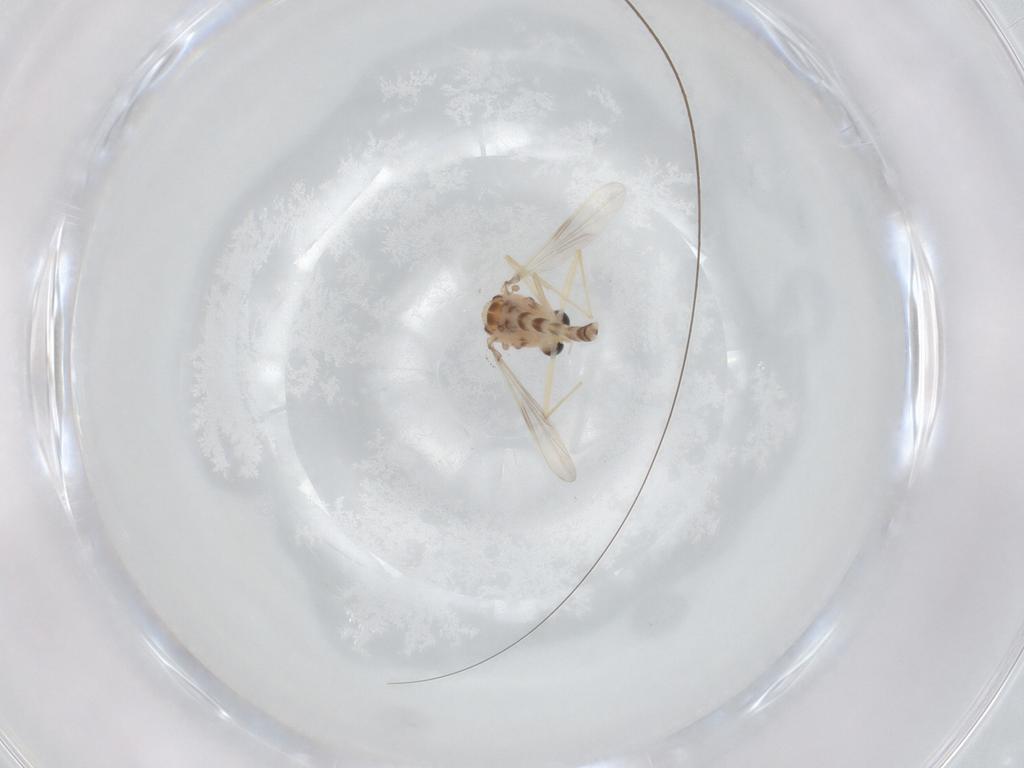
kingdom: Animalia
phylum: Arthropoda
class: Insecta
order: Diptera
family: Chironomidae
